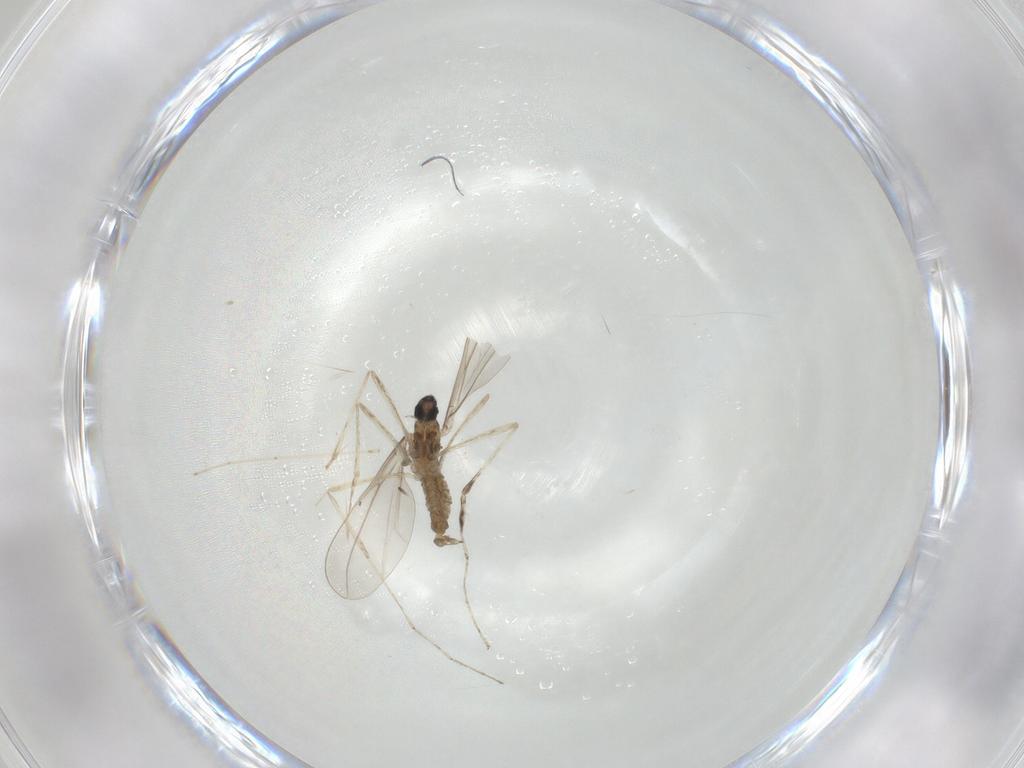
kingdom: Animalia
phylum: Arthropoda
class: Insecta
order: Diptera
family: Cecidomyiidae
